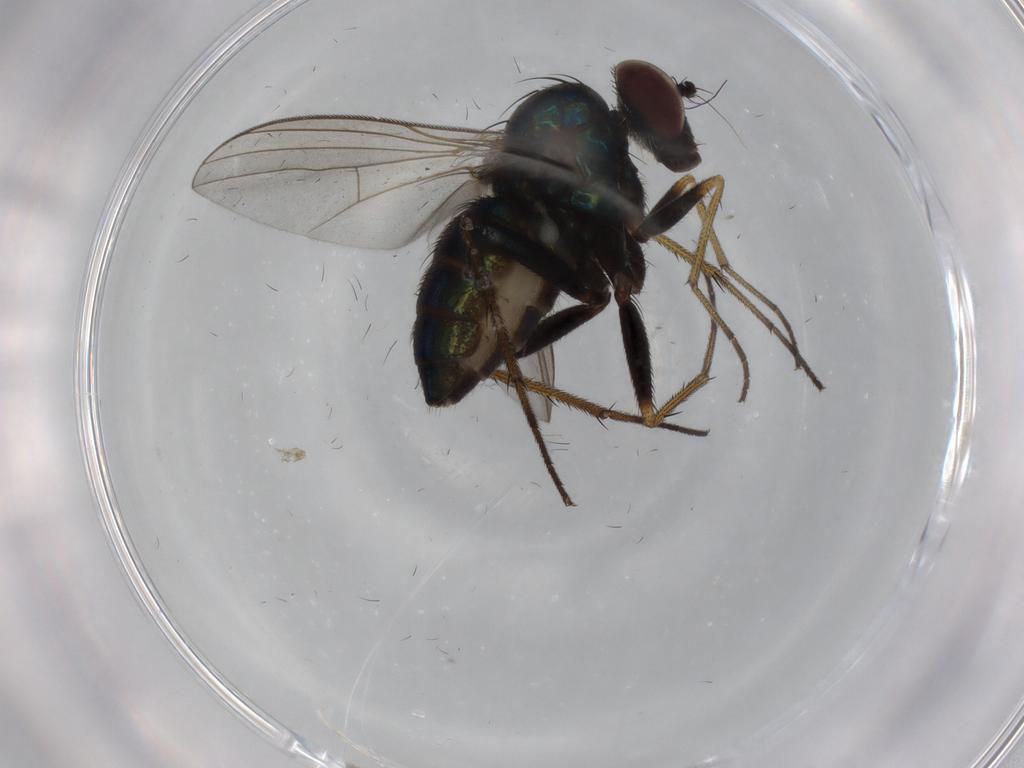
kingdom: Animalia
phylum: Arthropoda
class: Insecta
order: Diptera
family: Dolichopodidae
